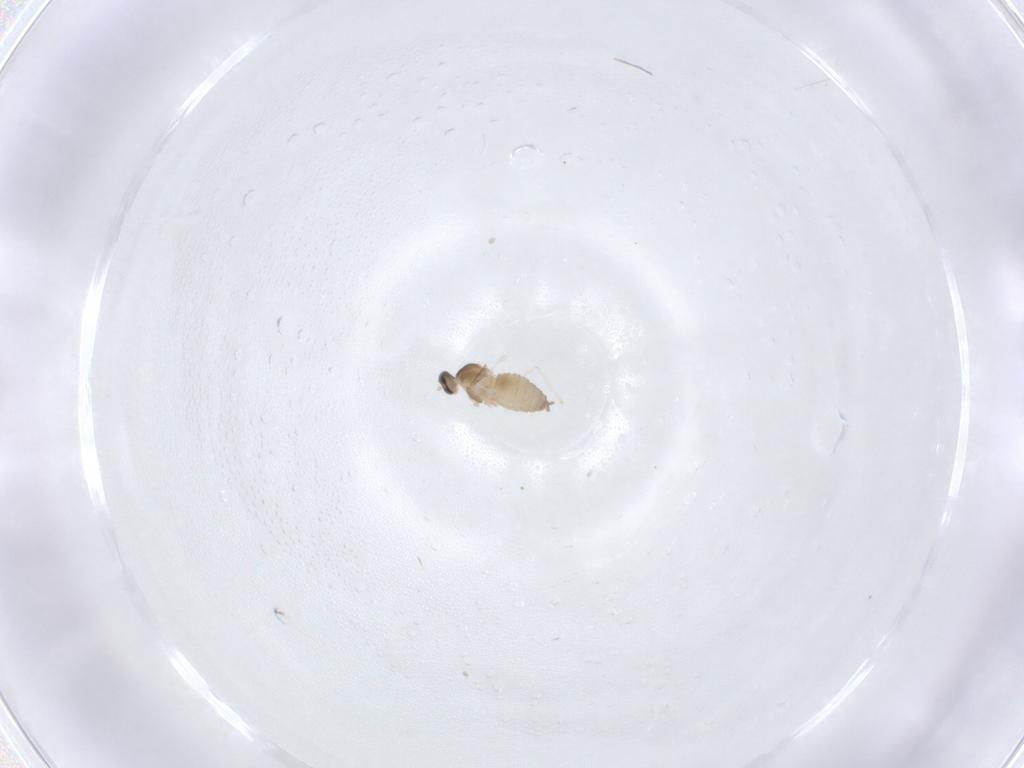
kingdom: Animalia
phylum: Arthropoda
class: Insecta
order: Diptera
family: Cecidomyiidae
